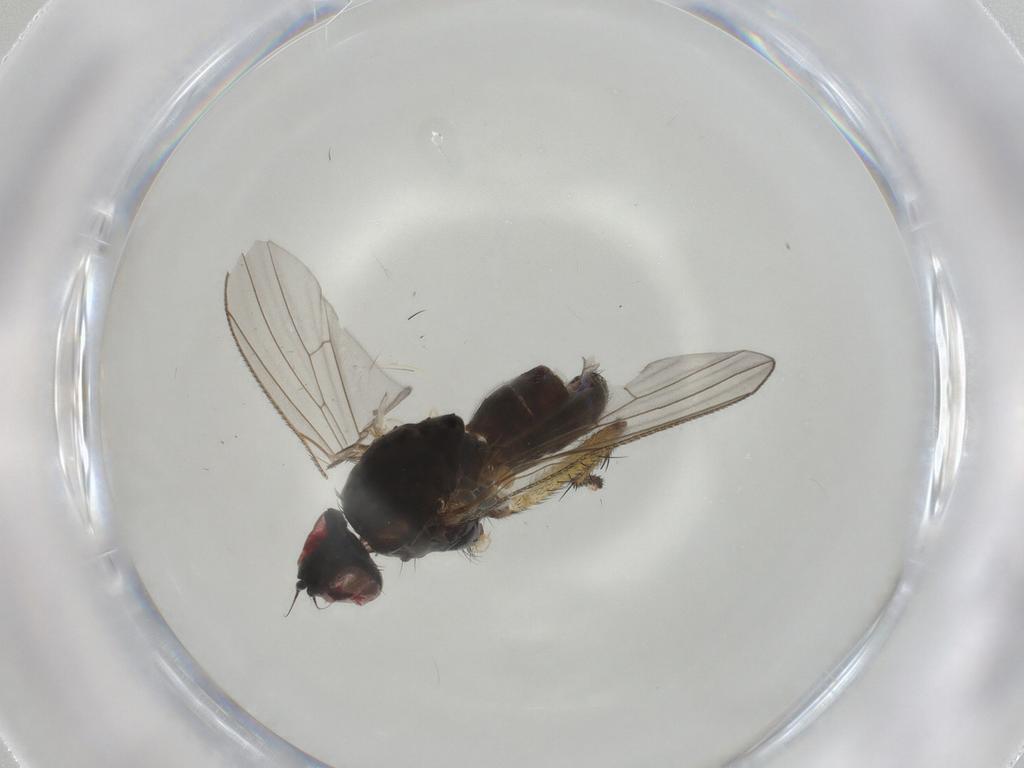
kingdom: Animalia
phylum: Arthropoda
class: Insecta
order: Diptera
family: Chironomidae
